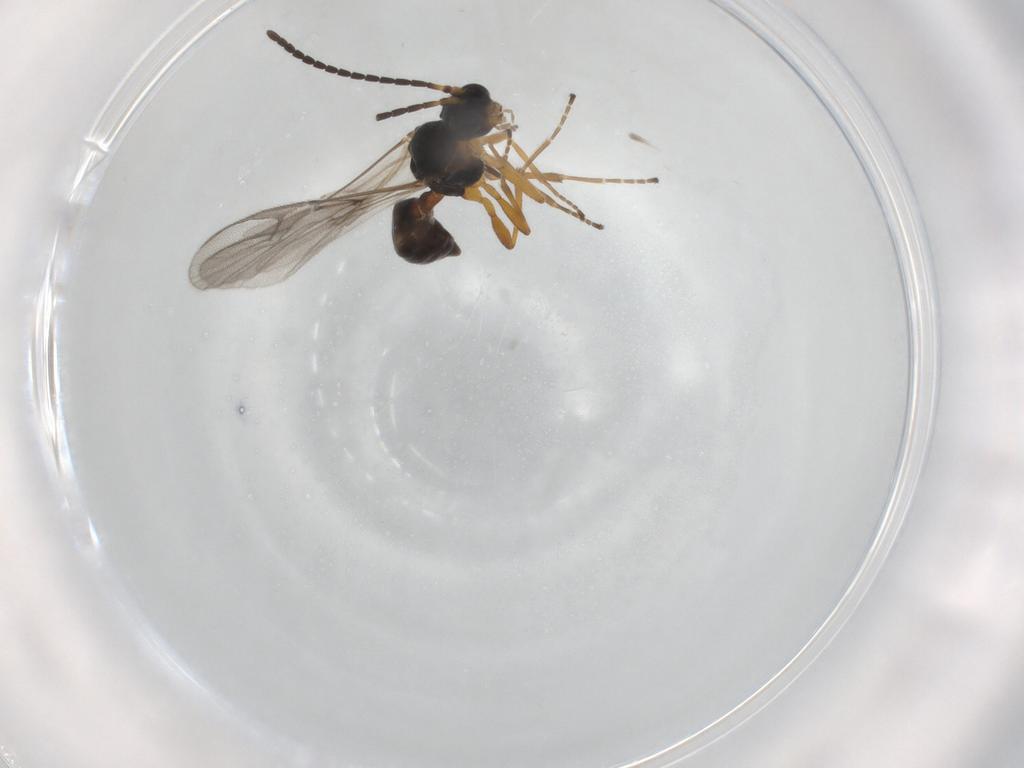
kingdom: Animalia
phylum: Arthropoda
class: Insecta
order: Hymenoptera
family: Braconidae
